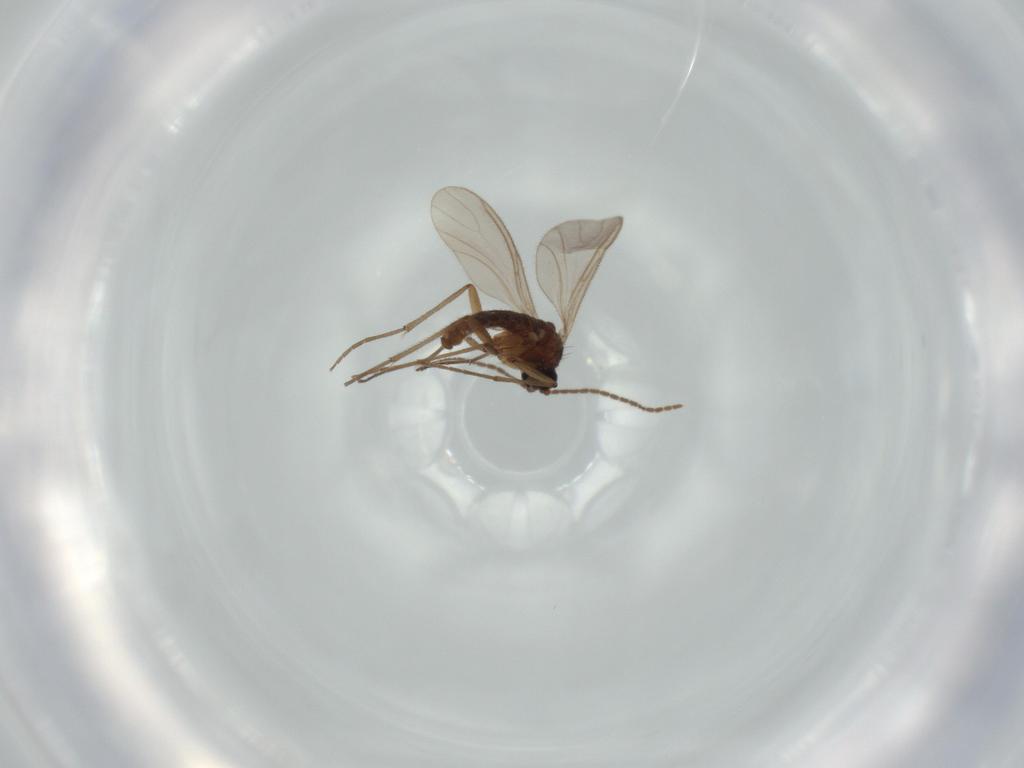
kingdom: Animalia
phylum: Arthropoda
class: Insecta
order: Diptera
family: Sciaridae
